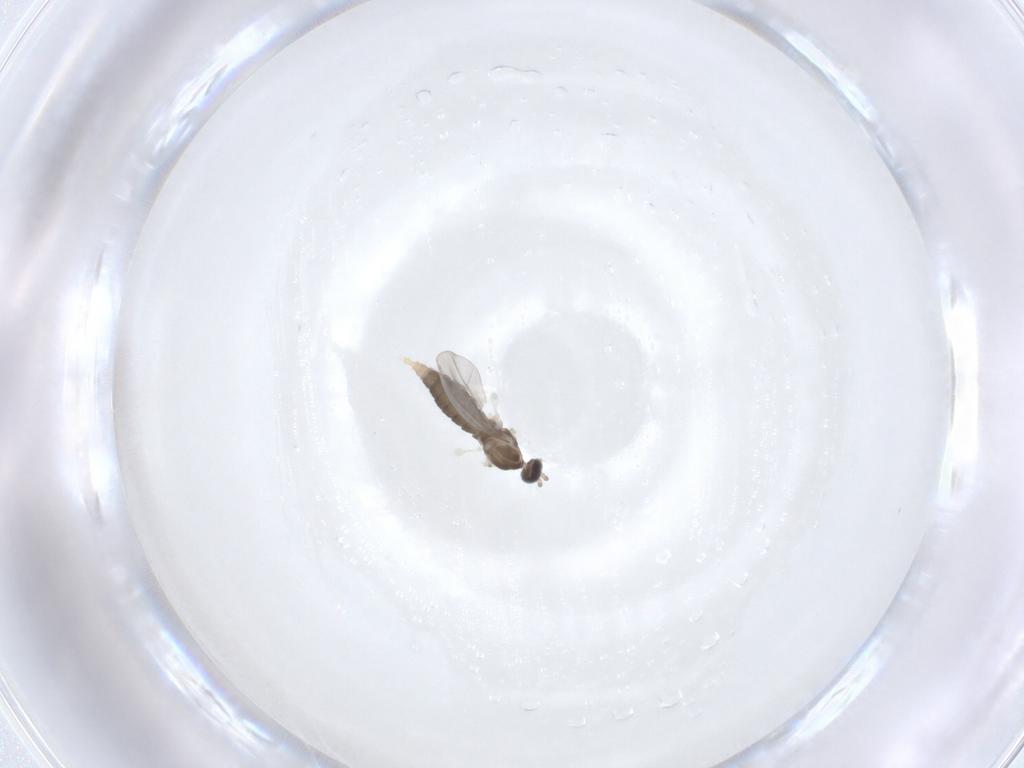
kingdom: Animalia
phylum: Arthropoda
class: Insecta
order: Diptera
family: Cecidomyiidae
